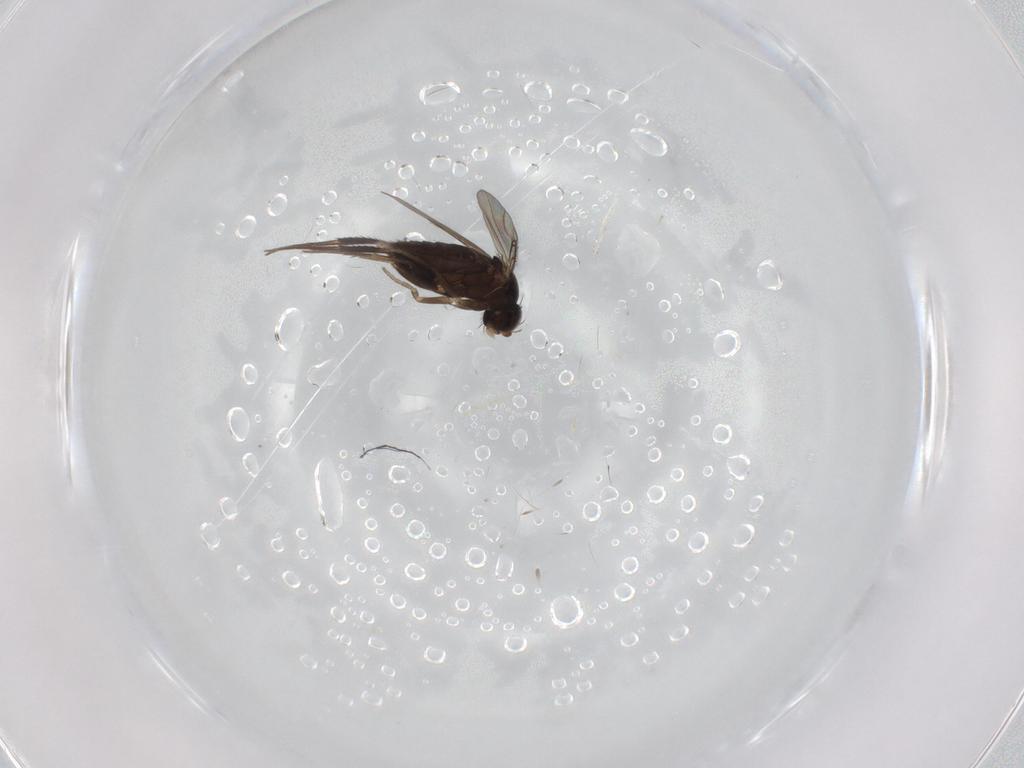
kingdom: Animalia
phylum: Arthropoda
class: Insecta
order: Diptera
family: Phoridae
